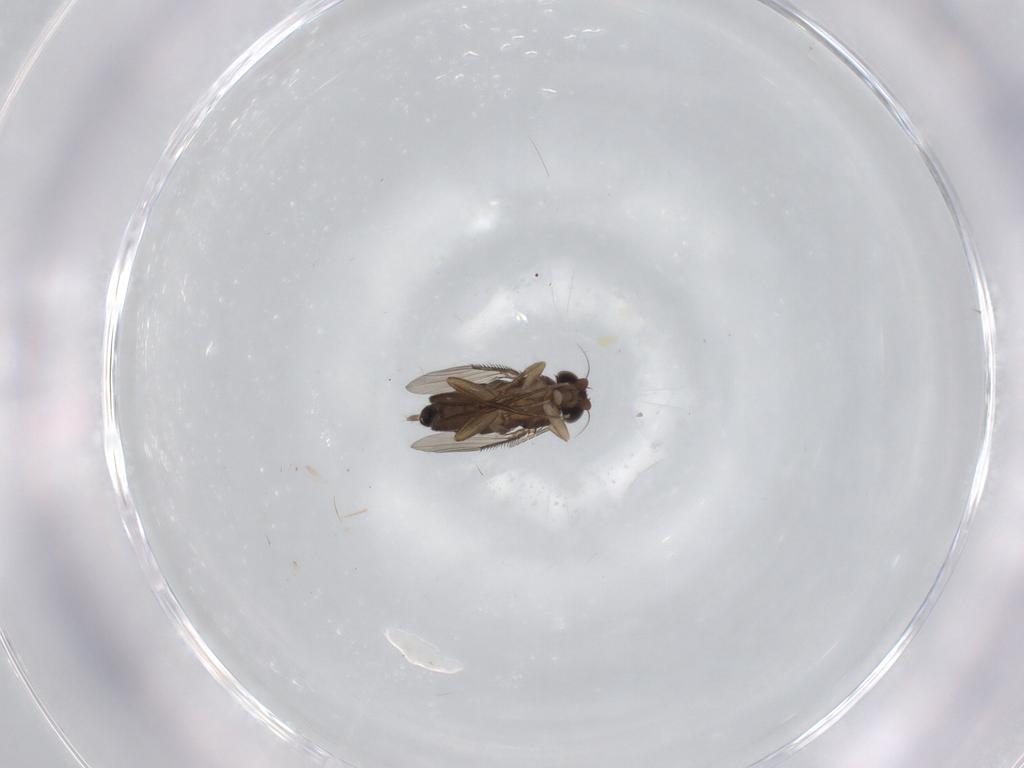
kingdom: Animalia
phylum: Arthropoda
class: Insecta
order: Diptera
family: Phoridae
